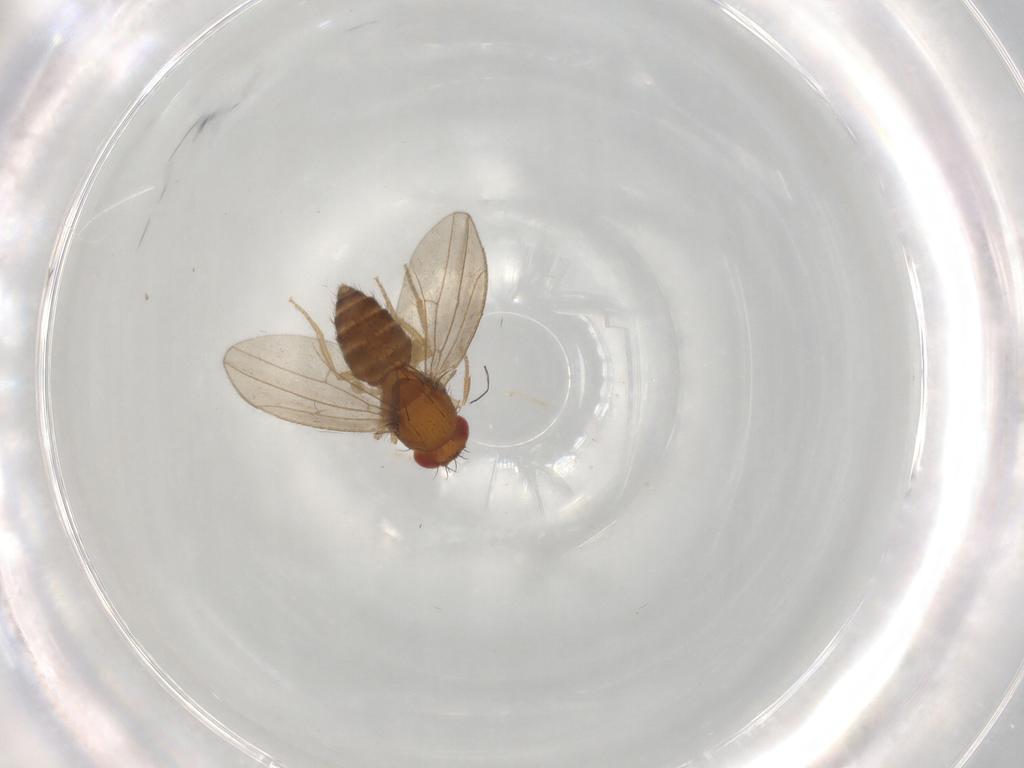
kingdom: Animalia
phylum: Arthropoda
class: Insecta
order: Diptera
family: Drosophilidae
